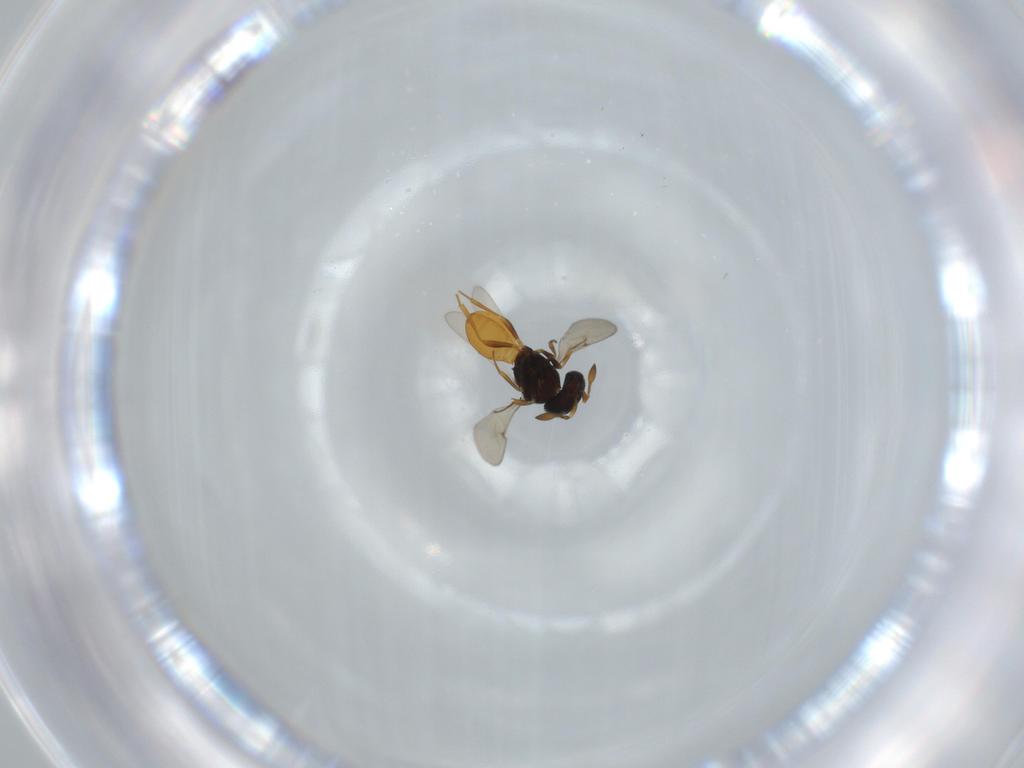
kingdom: Animalia
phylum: Arthropoda
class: Insecta
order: Hymenoptera
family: Scelionidae
